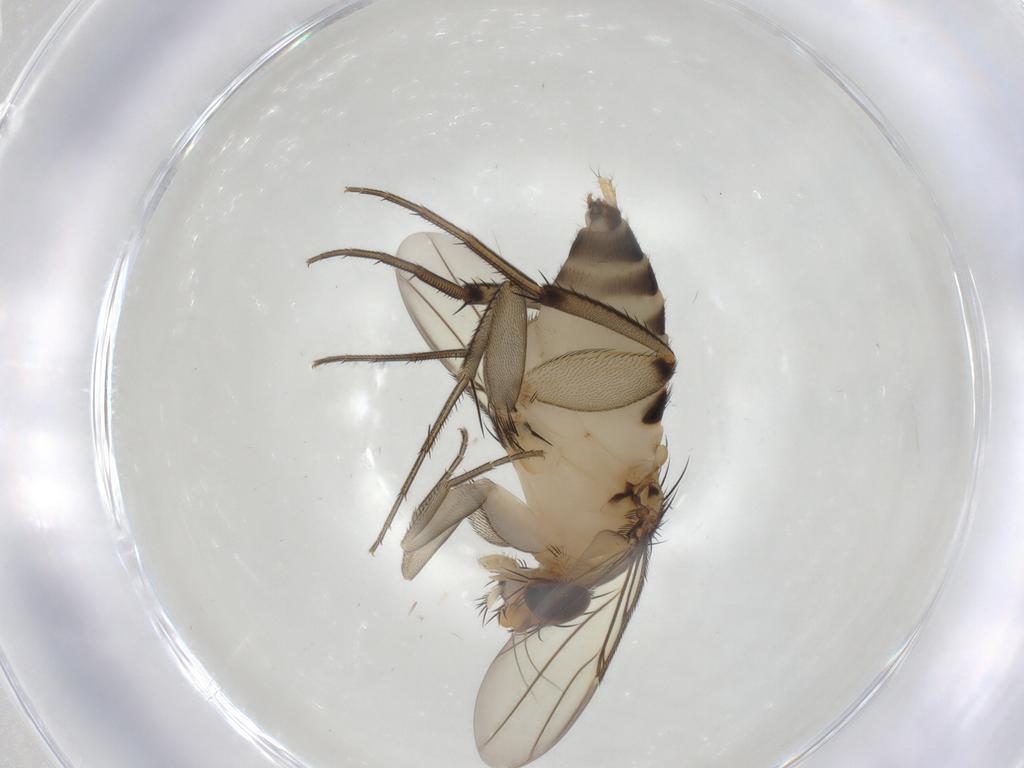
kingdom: Animalia
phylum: Arthropoda
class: Insecta
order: Diptera
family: Phoridae
